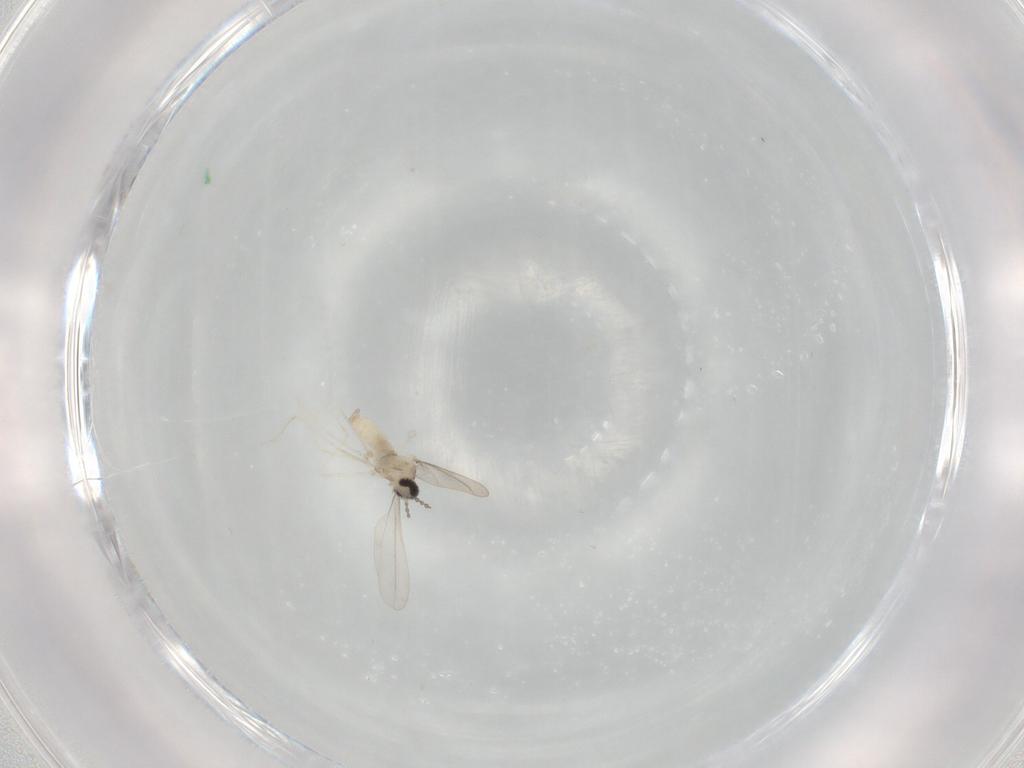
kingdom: Animalia
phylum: Arthropoda
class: Insecta
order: Diptera
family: Cecidomyiidae
